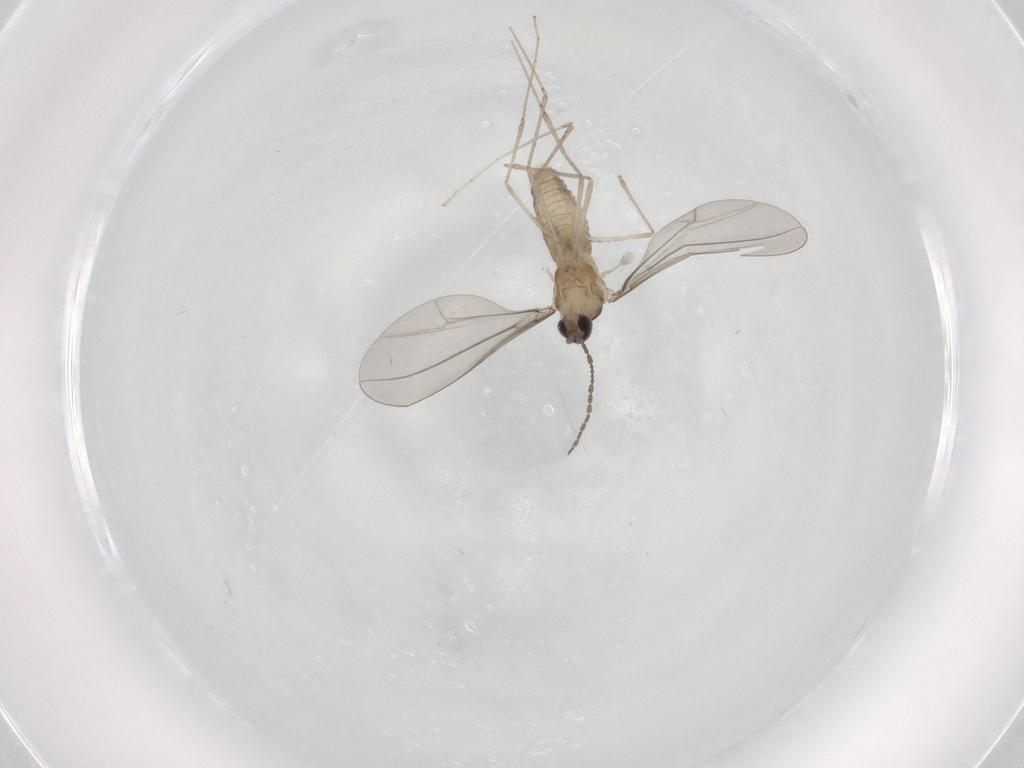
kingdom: Animalia
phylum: Arthropoda
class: Insecta
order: Diptera
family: Cecidomyiidae
